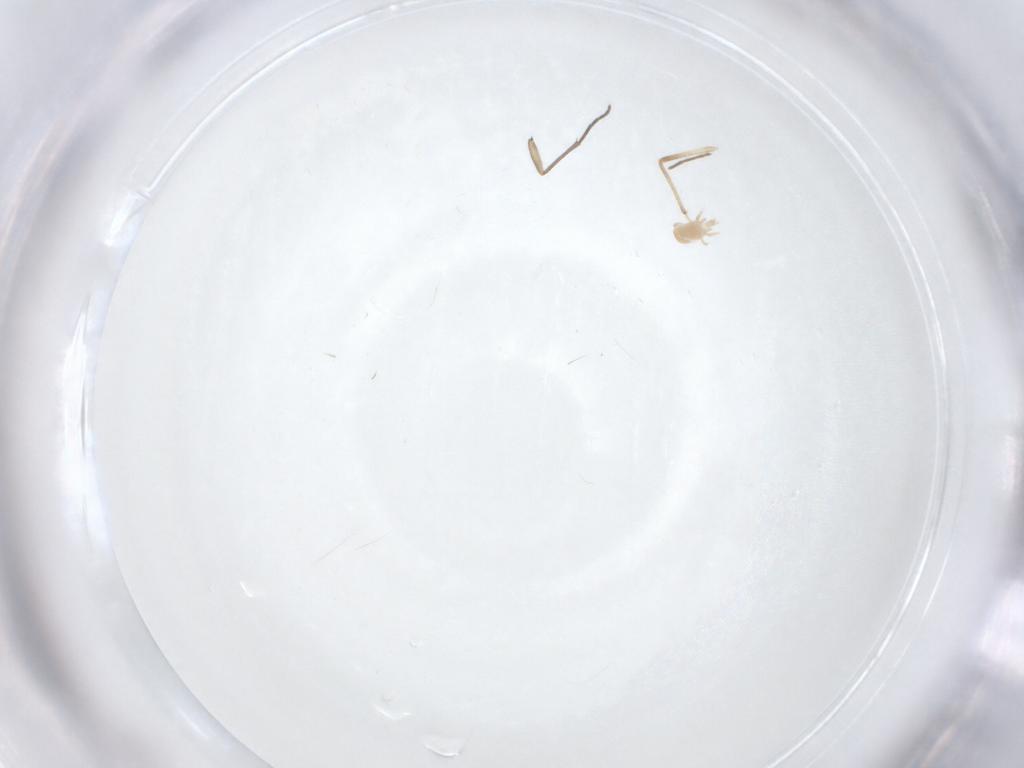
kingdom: Animalia
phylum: Arthropoda
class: Insecta
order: Diptera
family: Sciaridae
